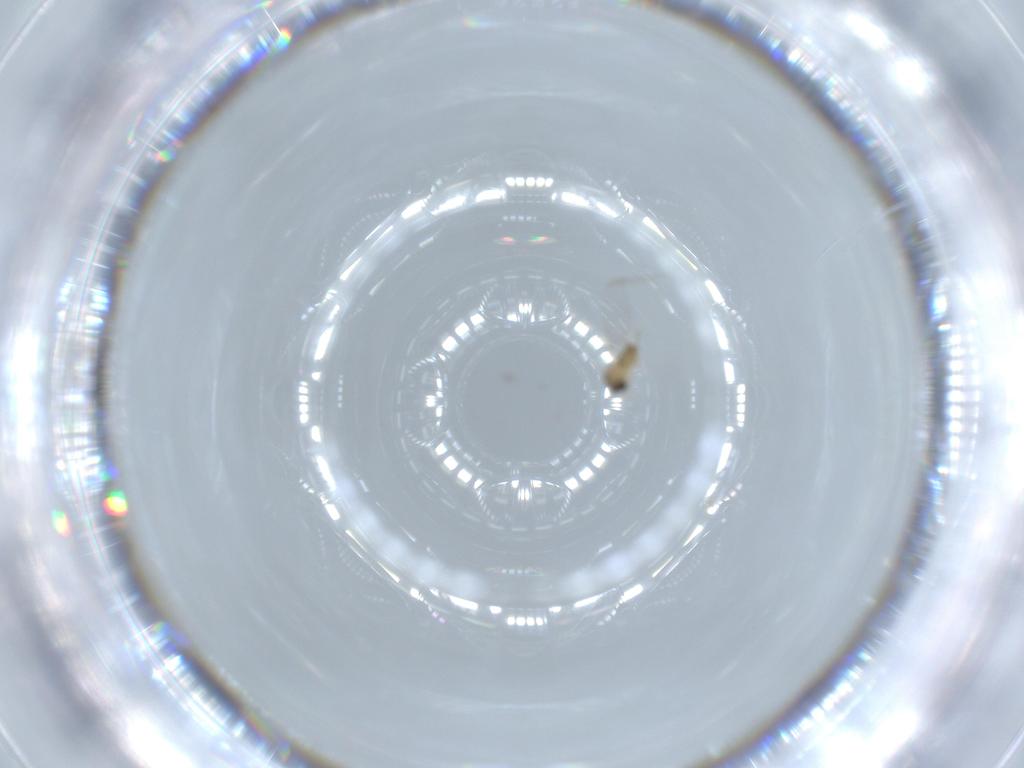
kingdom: Animalia
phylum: Arthropoda
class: Insecta
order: Diptera
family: Cecidomyiidae
